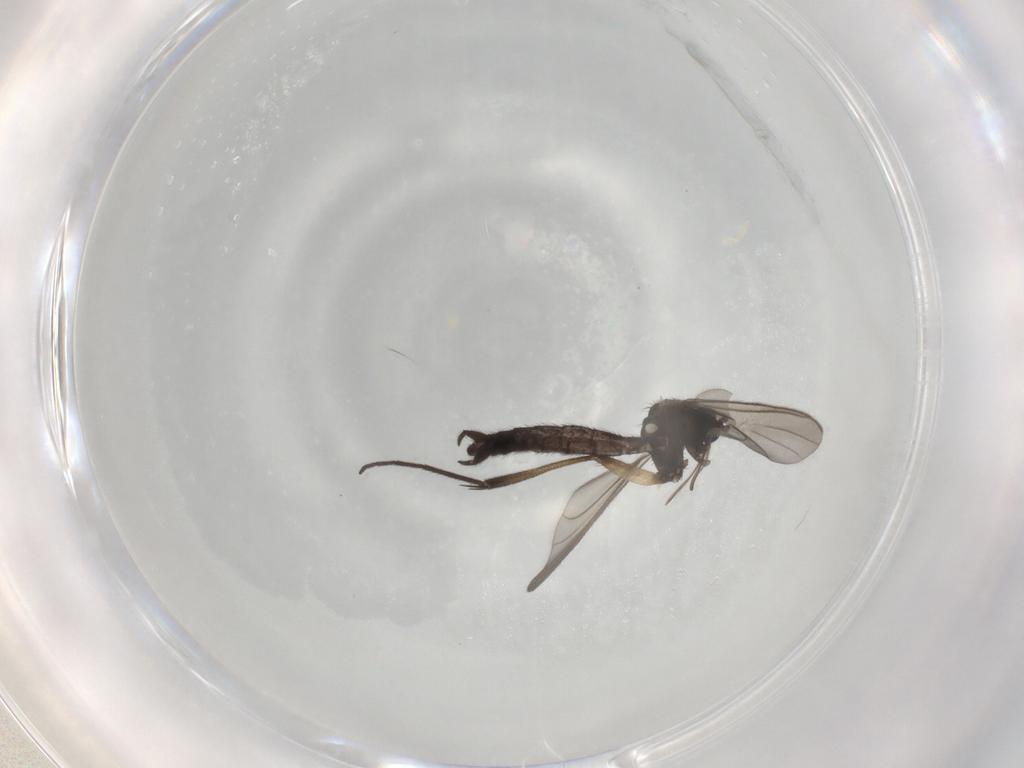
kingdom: Animalia
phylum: Arthropoda
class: Insecta
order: Diptera
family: Keroplatidae
